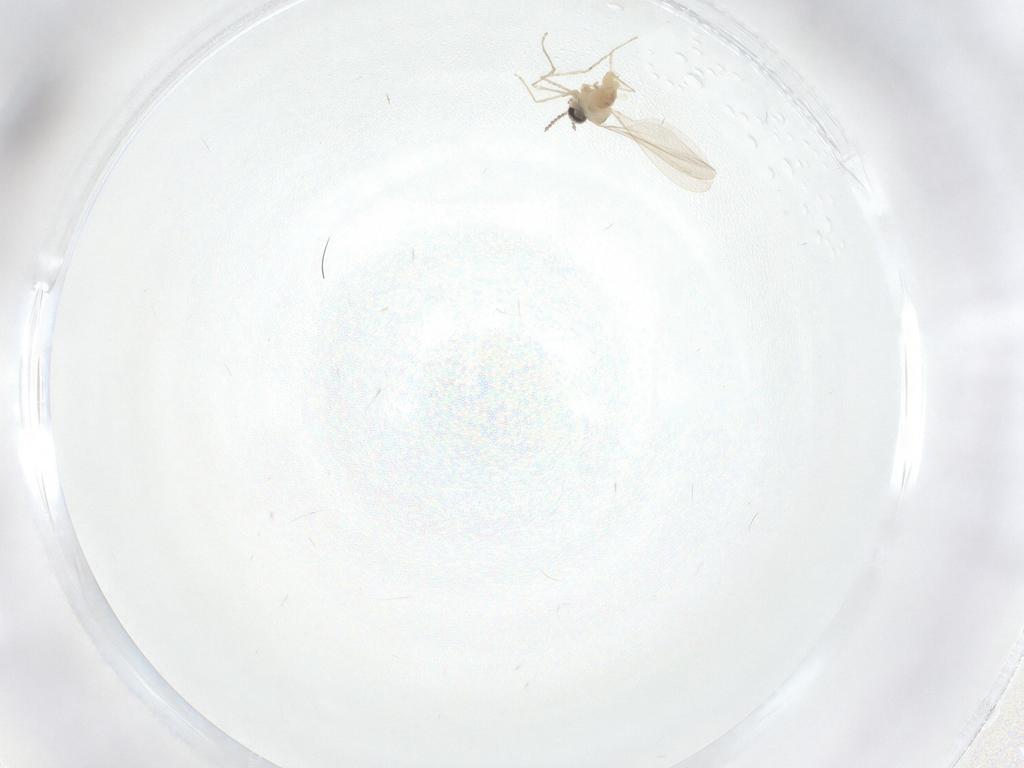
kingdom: Animalia
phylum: Arthropoda
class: Insecta
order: Diptera
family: Cecidomyiidae
